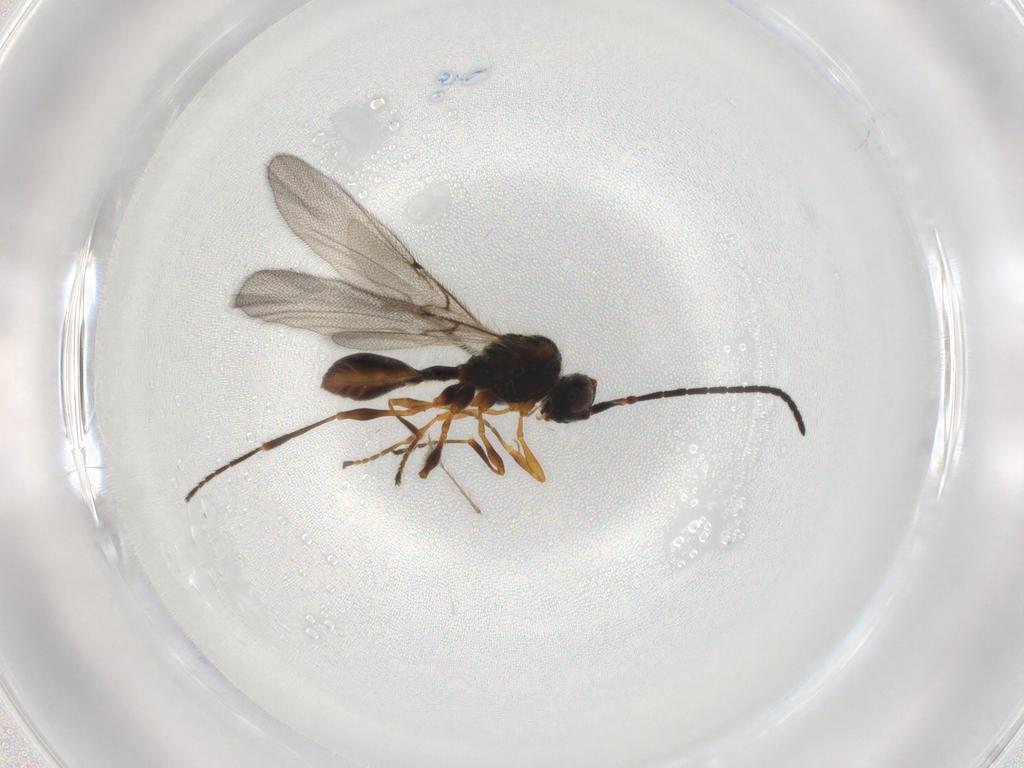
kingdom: Animalia
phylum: Arthropoda
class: Insecta
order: Hymenoptera
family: Diapriidae
